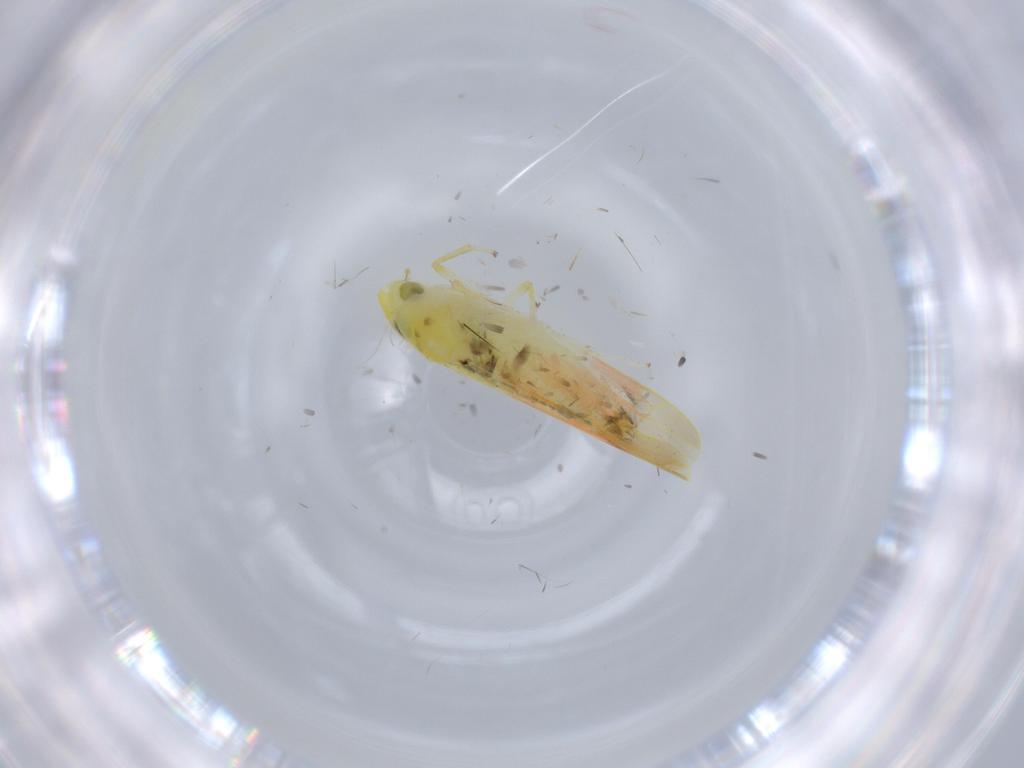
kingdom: Animalia
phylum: Arthropoda
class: Insecta
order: Hemiptera
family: Cicadellidae
